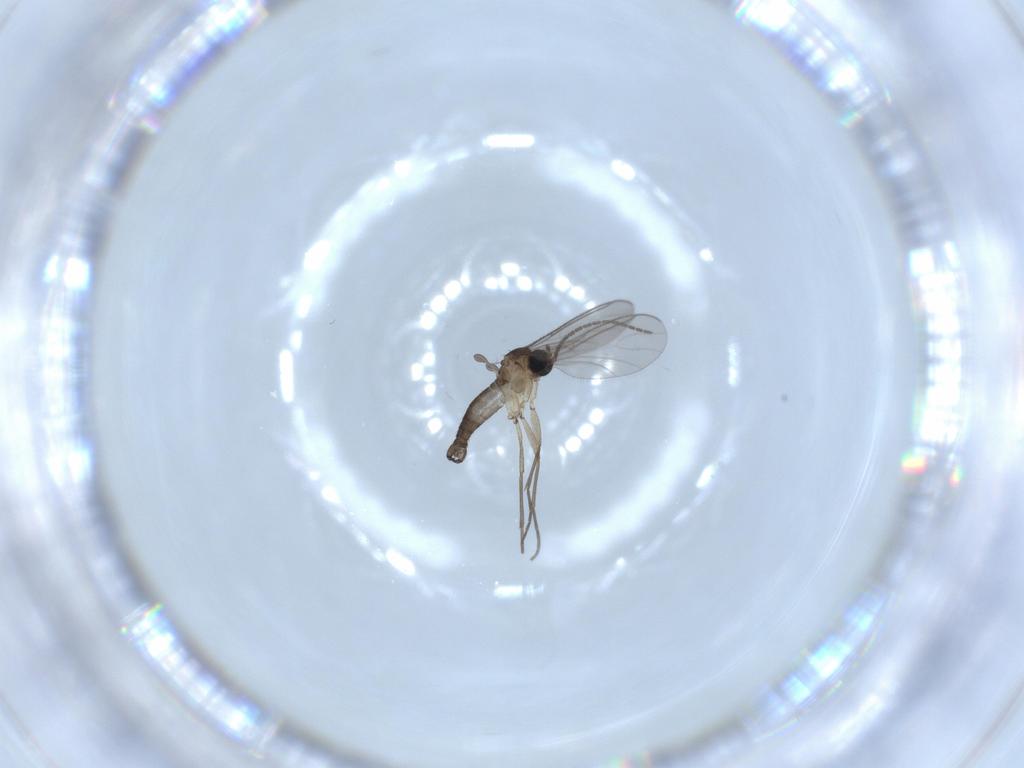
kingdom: Animalia
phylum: Arthropoda
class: Insecta
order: Diptera
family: Sciaridae
